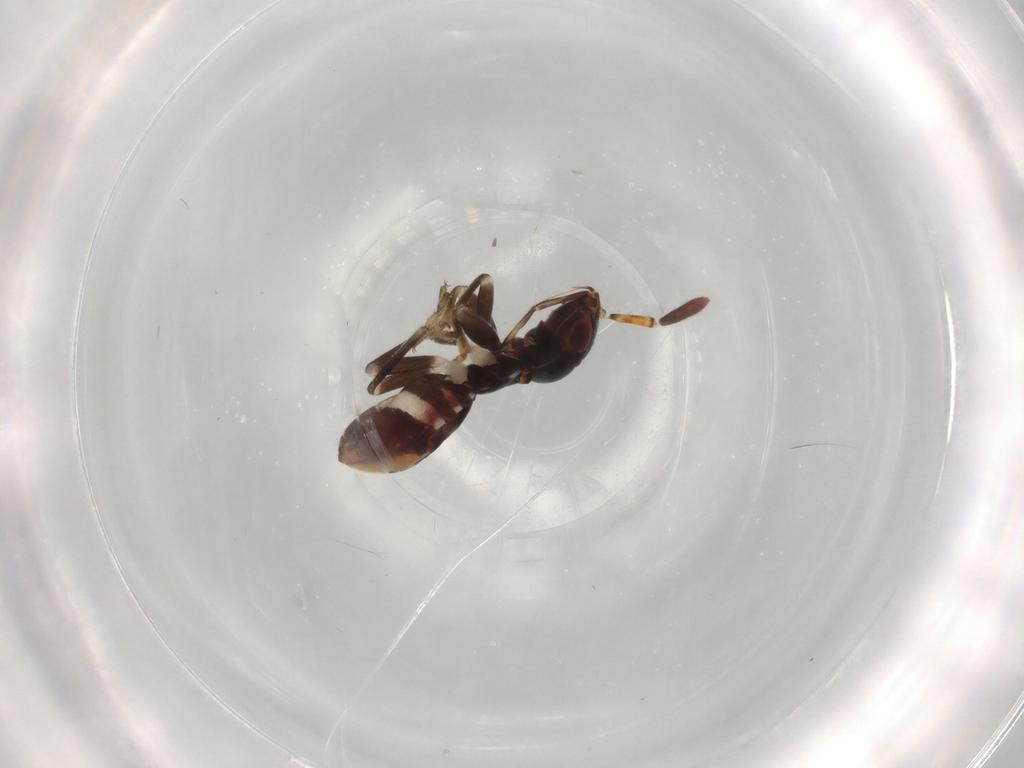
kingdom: Animalia
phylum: Arthropoda
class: Insecta
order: Hemiptera
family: Rhyparochromidae
